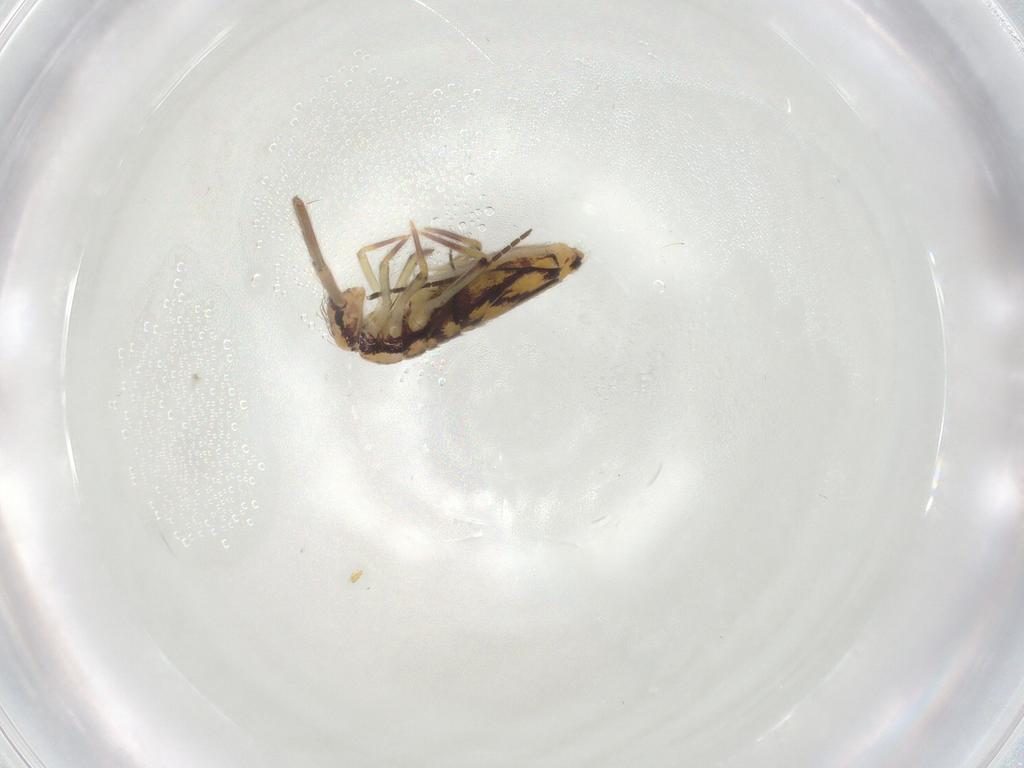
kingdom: Animalia
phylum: Arthropoda
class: Collembola
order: Entomobryomorpha
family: Entomobryidae
